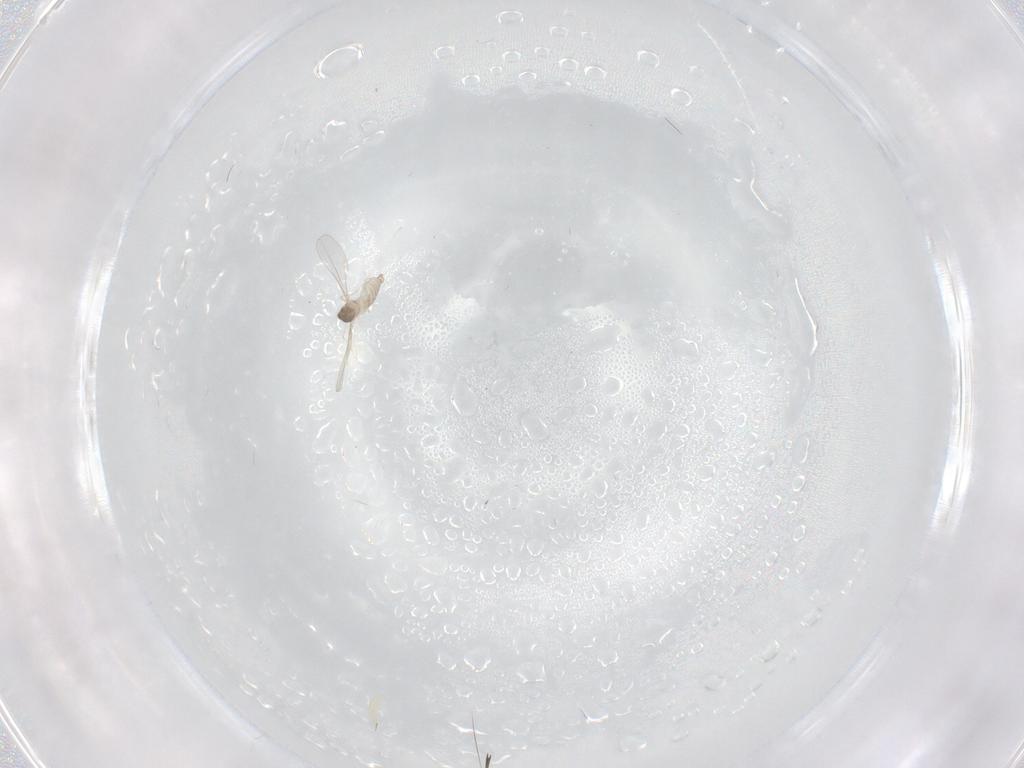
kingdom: Animalia
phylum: Arthropoda
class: Insecta
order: Diptera
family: Cecidomyiidae
